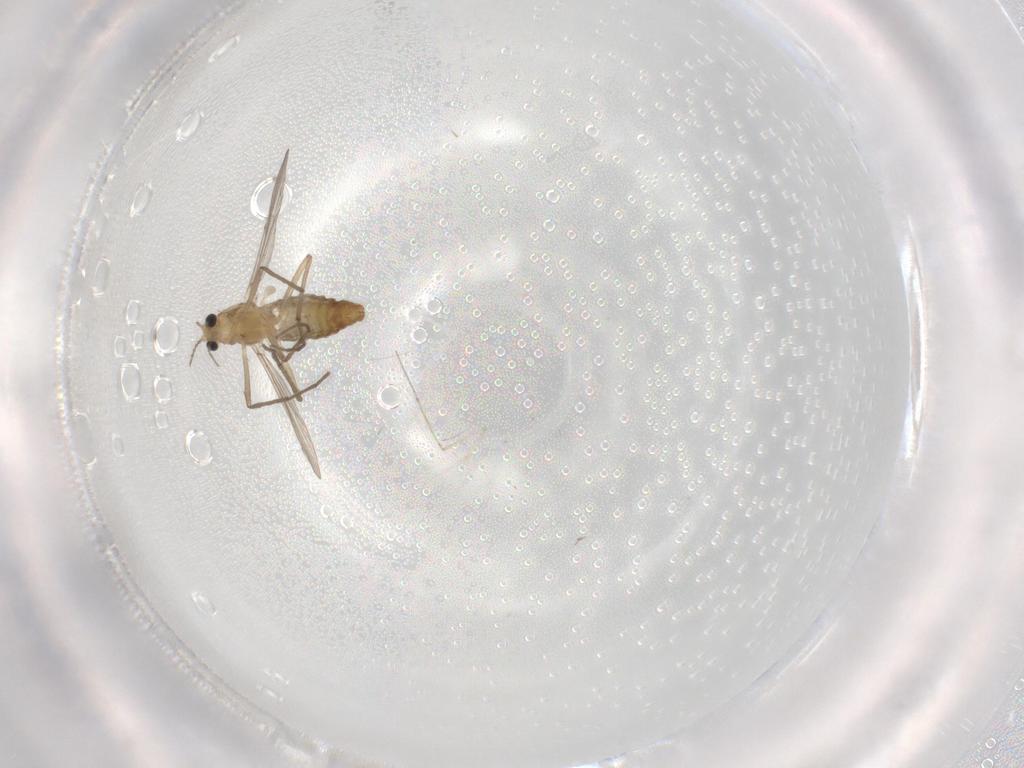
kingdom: Animalia
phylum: Arthropoda
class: Insecta
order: Diptera
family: Chironomidae
